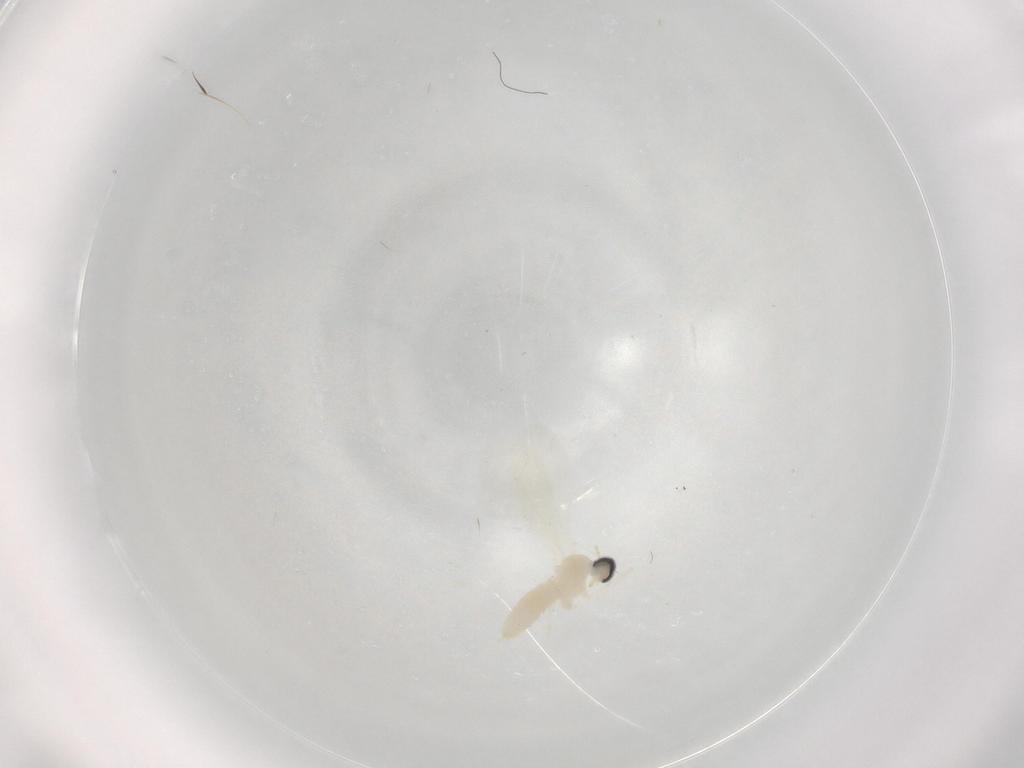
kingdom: Animalia
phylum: Arthropoda
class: Insecta
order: Diptera
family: Cecidomyiidae
